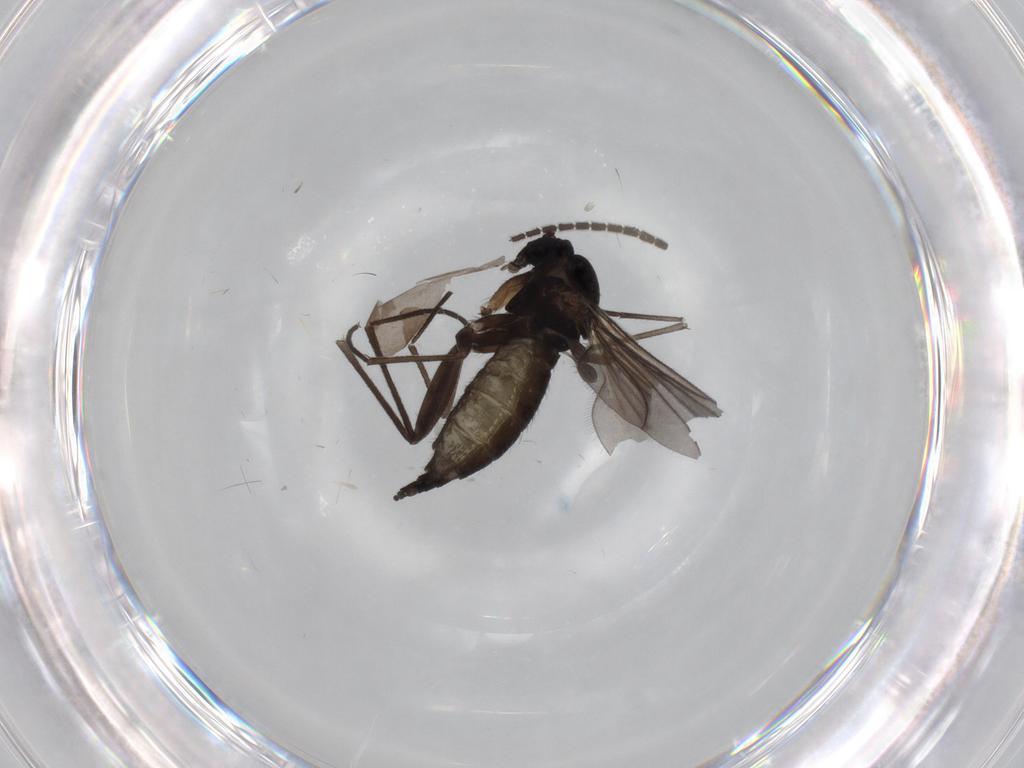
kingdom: Animalia
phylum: Arthropoda
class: Insecta
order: Diptera
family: Sciaridae
